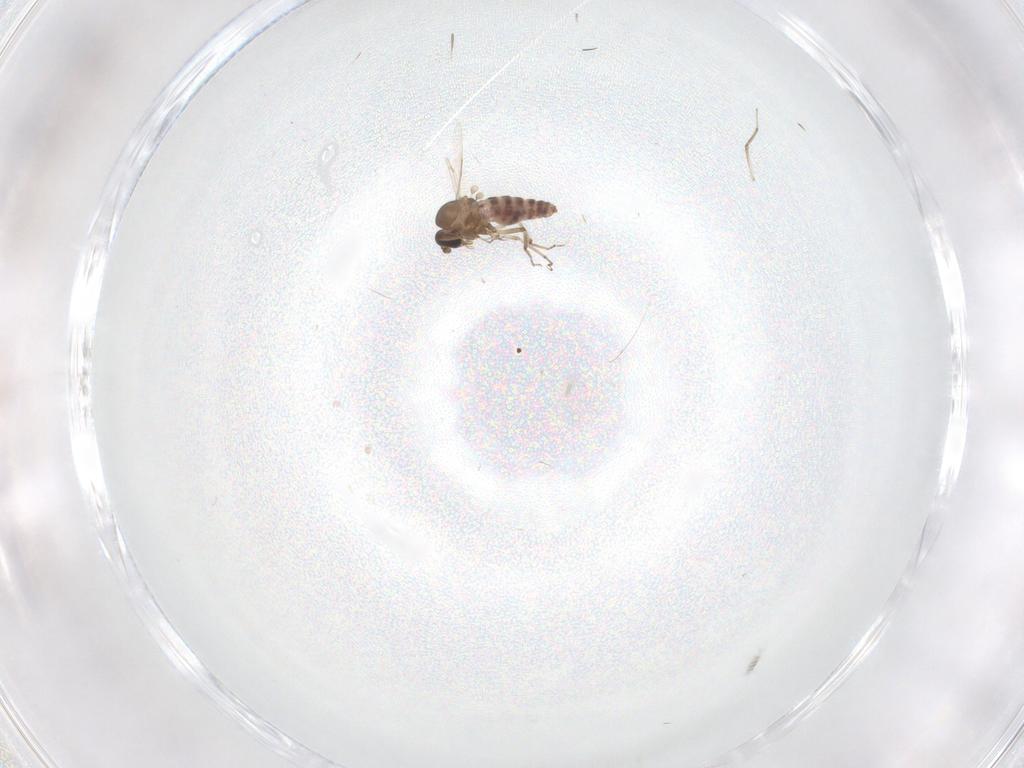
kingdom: Animalia
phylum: Arthropoda
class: Insecta
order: Diptera
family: Ceratopogonidae
